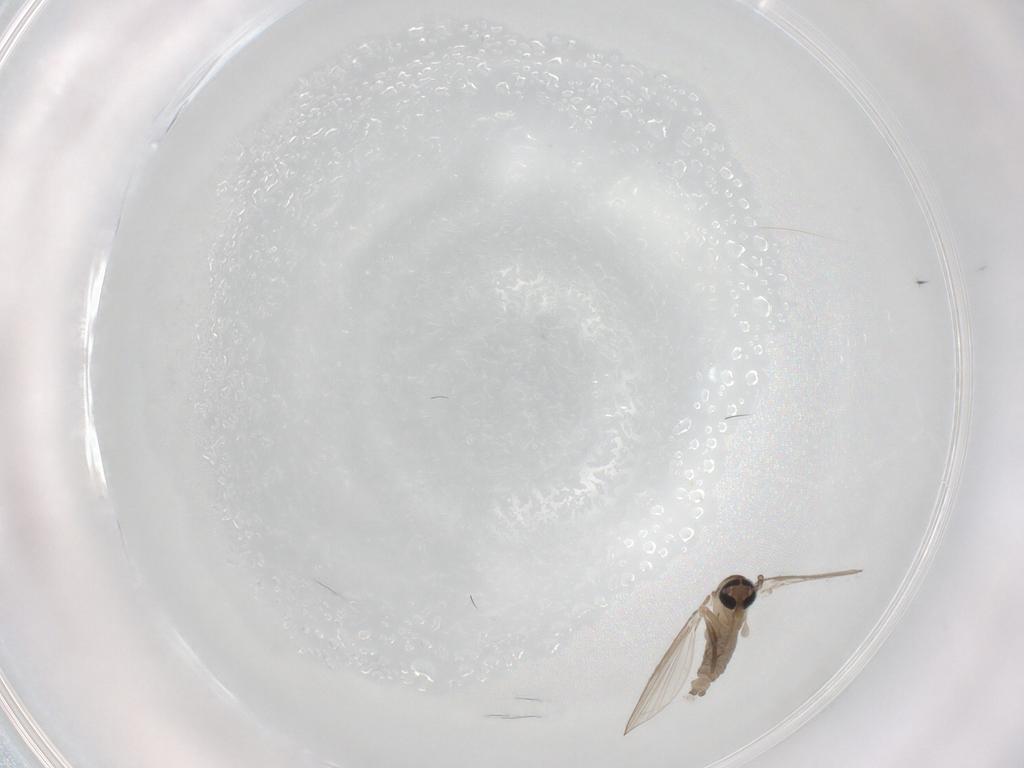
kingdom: Animalia
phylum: Arthropoda
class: Insecta
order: Diptera
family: Psychodidae
